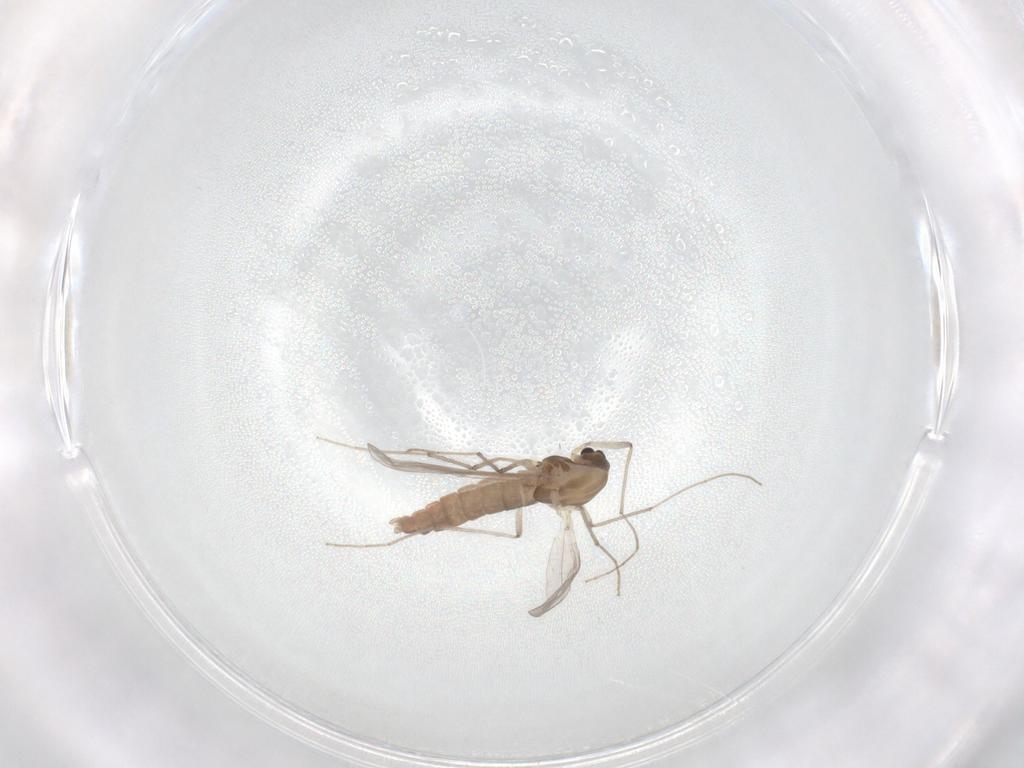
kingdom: Animalia
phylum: Arthropoda
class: Insecta
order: Diptera
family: Chironomidae
